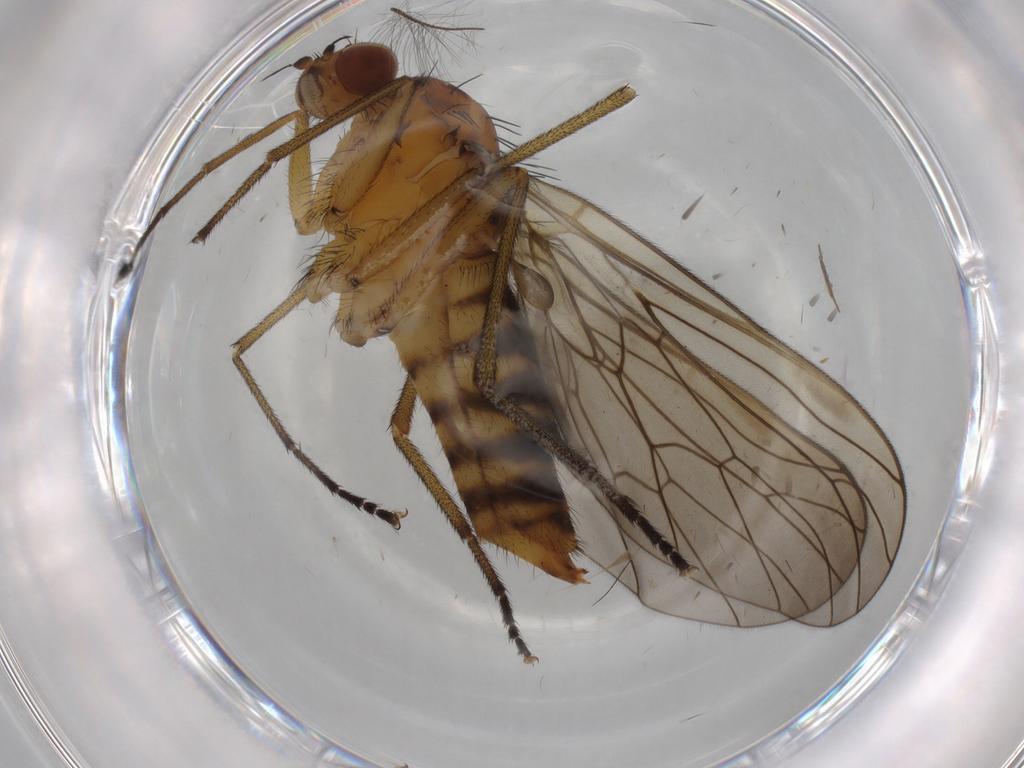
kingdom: Animalia
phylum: Arthropoda
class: Insecta
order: Diptera
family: Brachystomatidae
